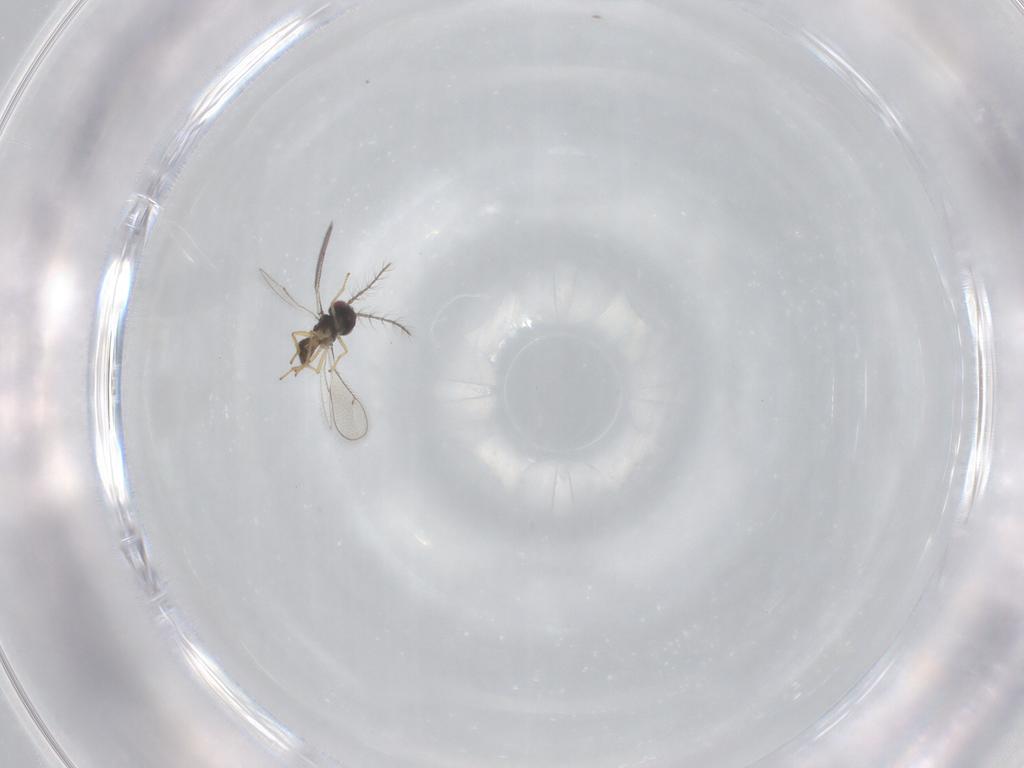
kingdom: Animalia
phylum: Arthropoda
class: Insecta
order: Hymenoptera
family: Eulophidae
